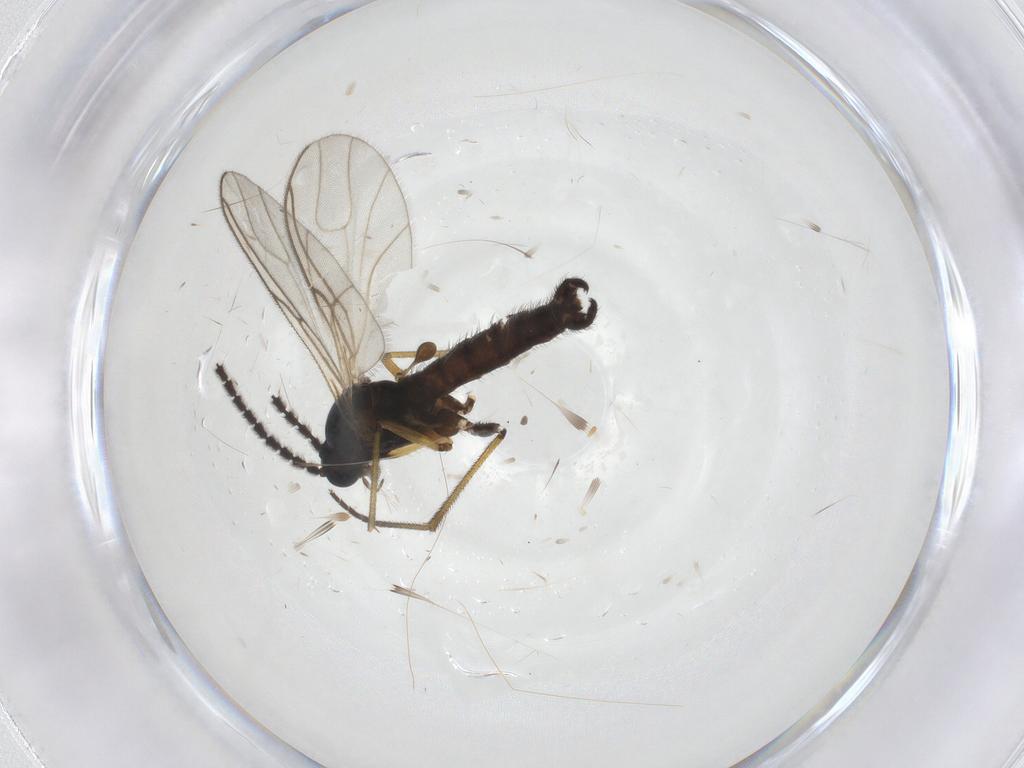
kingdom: Animalia
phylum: Arthropoda
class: Insecta
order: Diptera
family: Sciaridae
